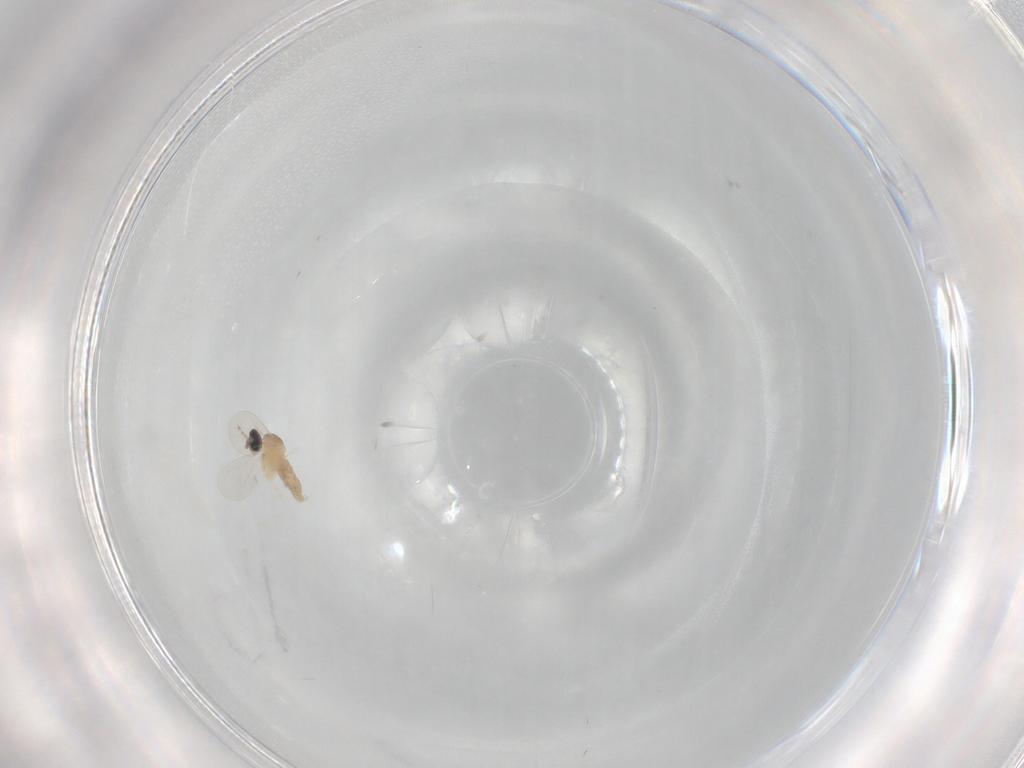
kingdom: Animalia
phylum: Arthropoda
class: Insecta
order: Diptera
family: Cecidomyiidae
